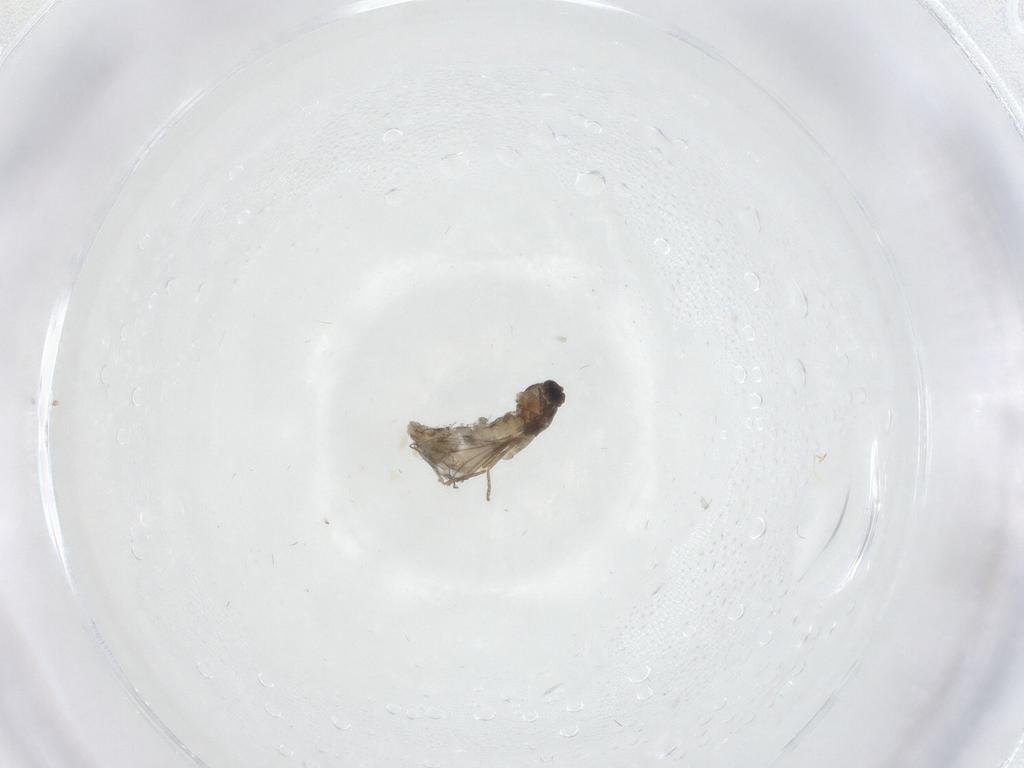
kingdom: Animalia
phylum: Arthropoda
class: Insecta
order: Diptera
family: Cecidomyiidae
